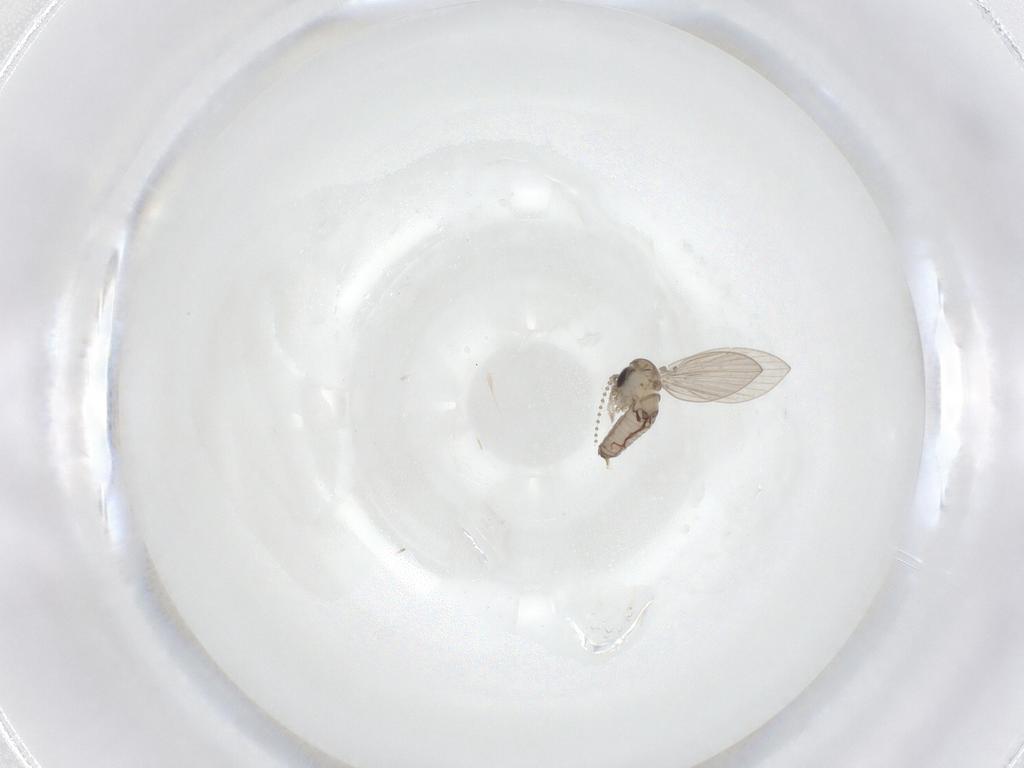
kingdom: Animalia
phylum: Arthropoda
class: Insecta
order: Diptera
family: Psychodidae
